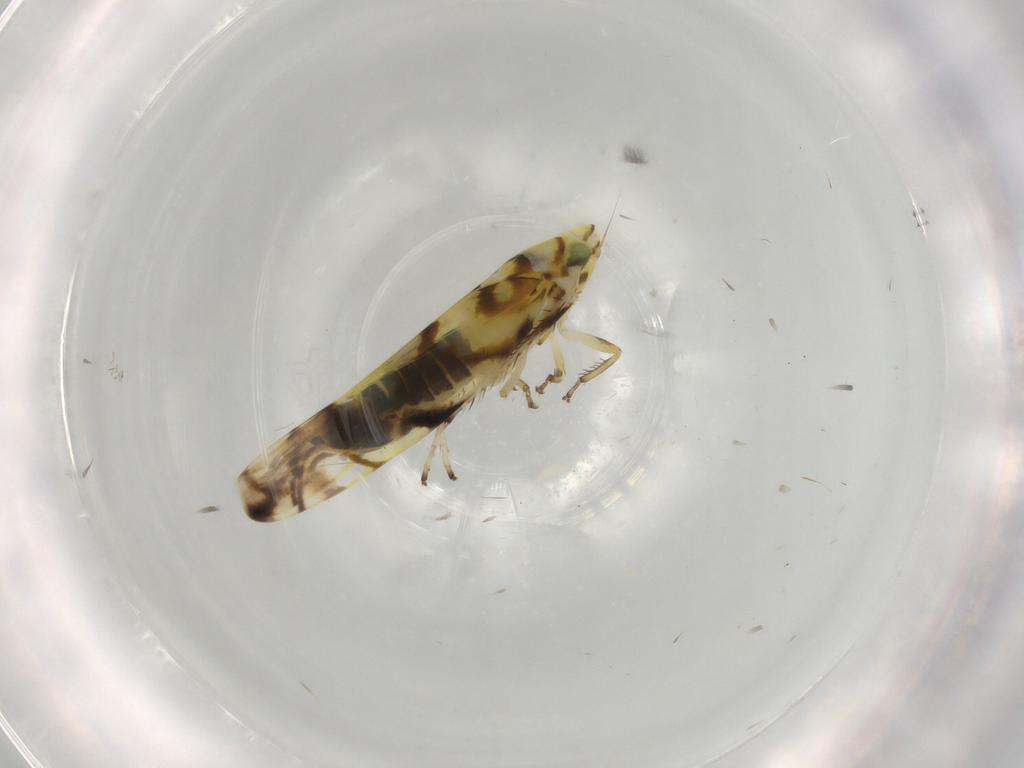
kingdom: Animalia
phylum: Arthropoda
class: Insecta
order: Hemiptera
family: Cicadellidae
